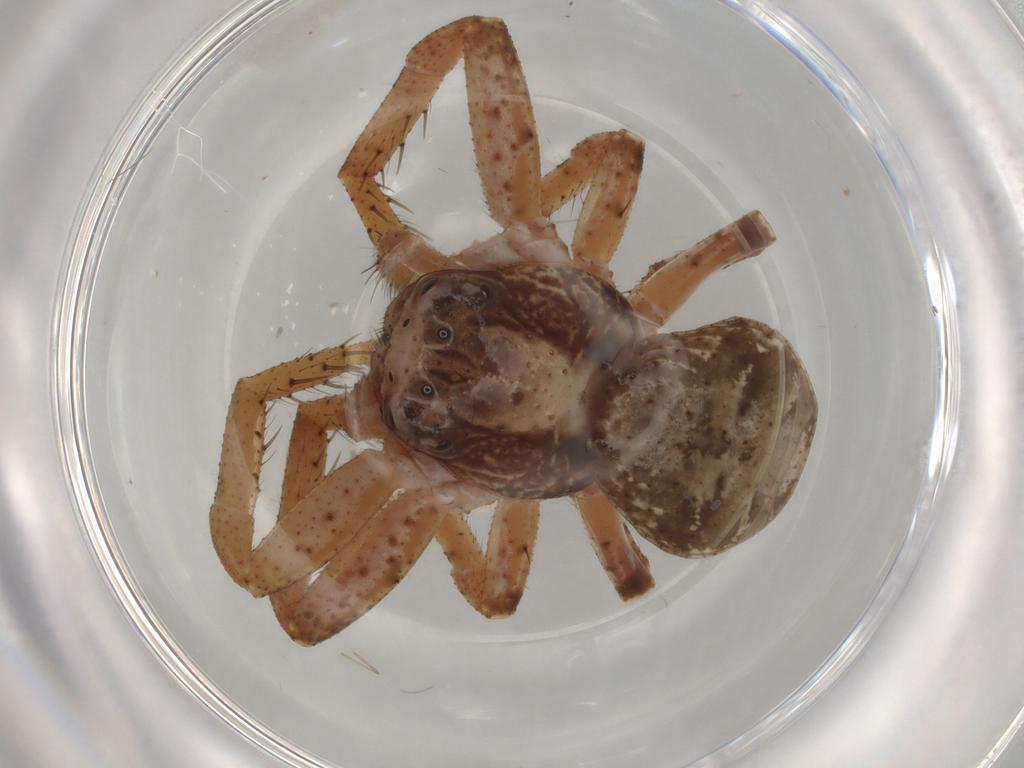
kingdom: Animalia
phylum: Arthropoda
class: Arachnida
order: Araneae
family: Thomisidae
